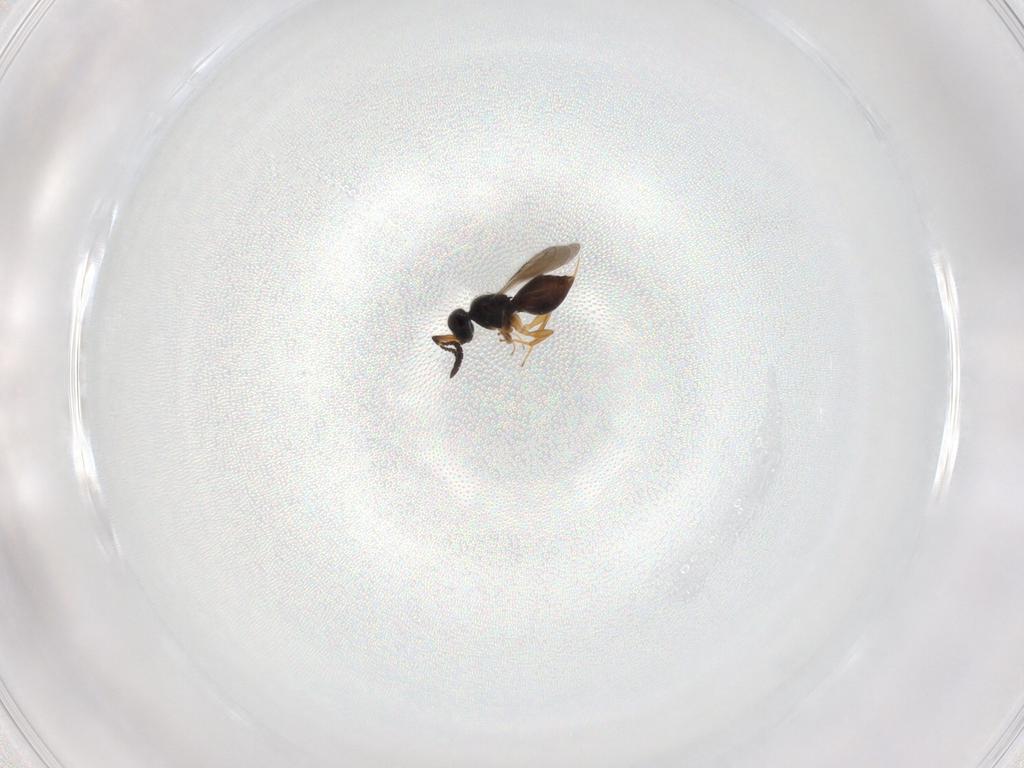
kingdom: Animalia
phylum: Arthropoda
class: Insecta
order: Hymenoptera
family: Ceraphronidae
